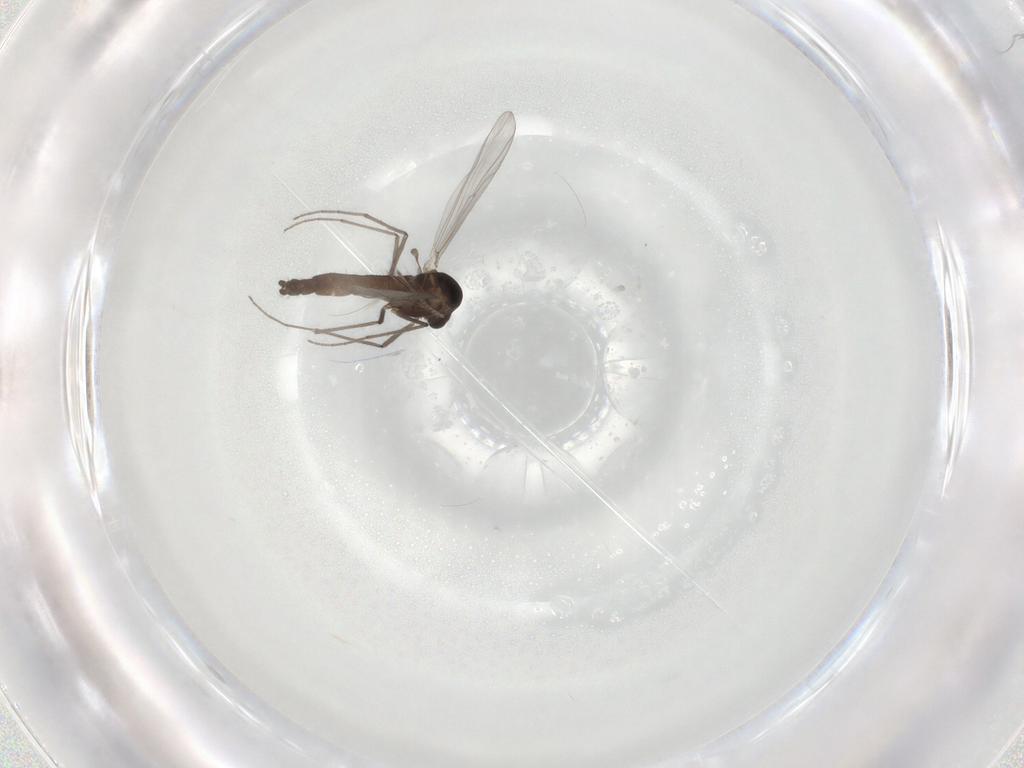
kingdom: Animalia
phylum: Arthropoda
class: Insecta
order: Diptera
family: Chironomidae
